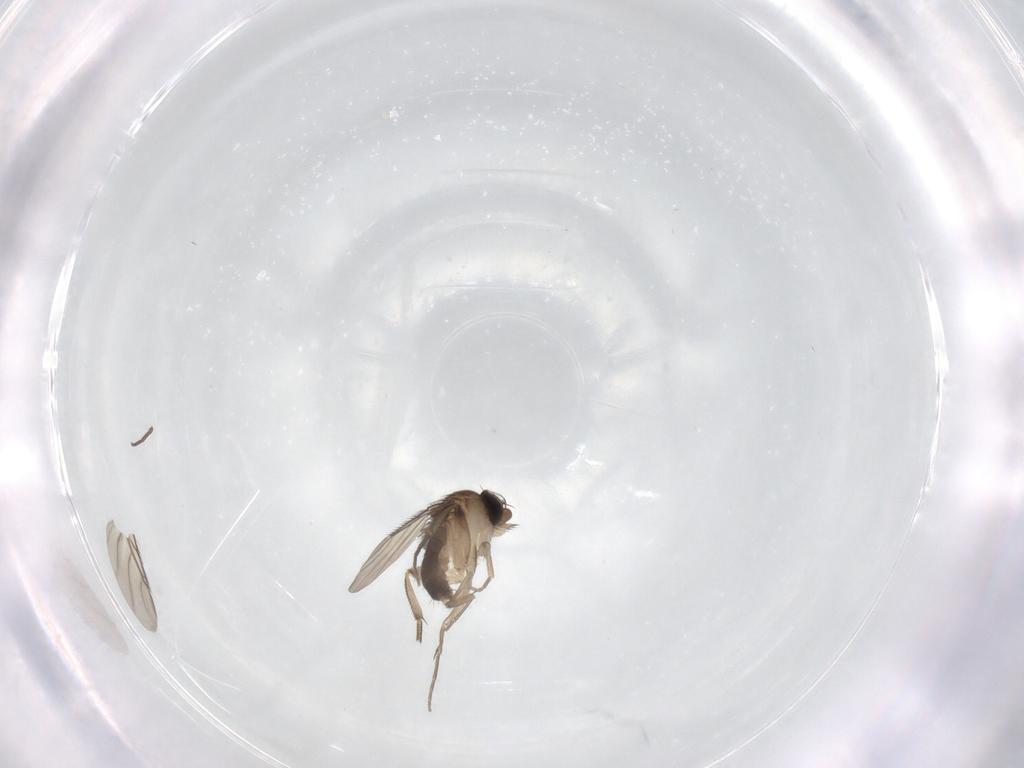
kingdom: Animalia
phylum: Arthropoda
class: Insecta
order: Diptera
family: Phoridae
